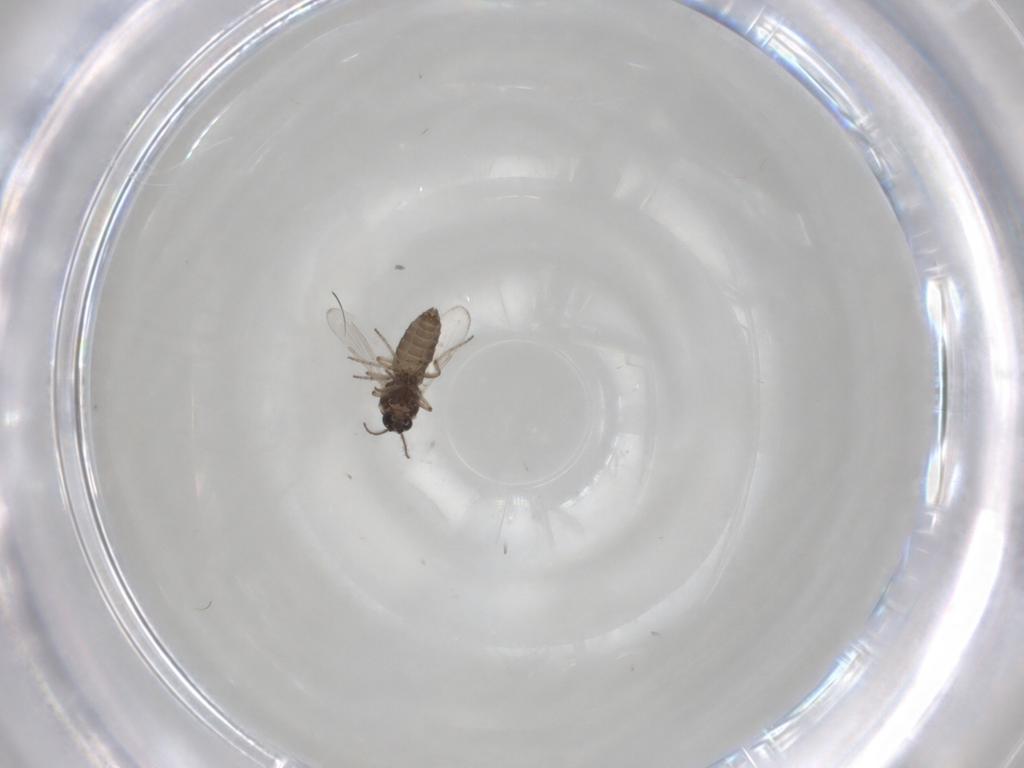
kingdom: Animalia
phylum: Arthropoda
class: Insecta
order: Diptera
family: Ceratopogonidae
